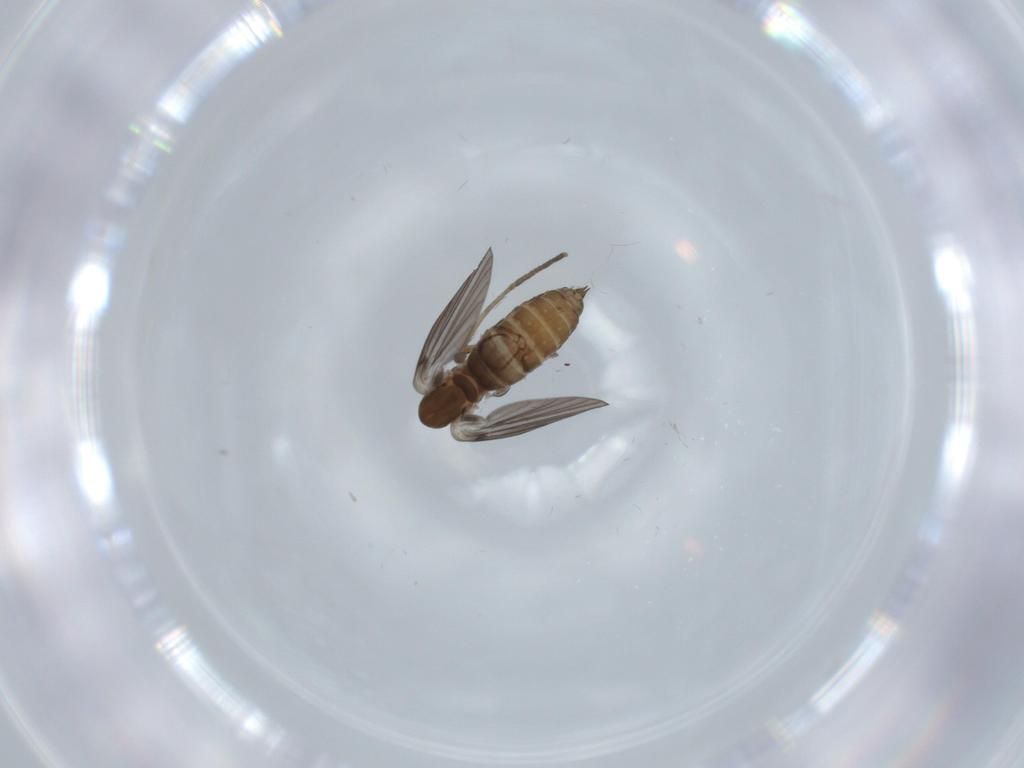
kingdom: Animalia
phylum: Arthropoda
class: Insecta
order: Diptera
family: Psychodidae
